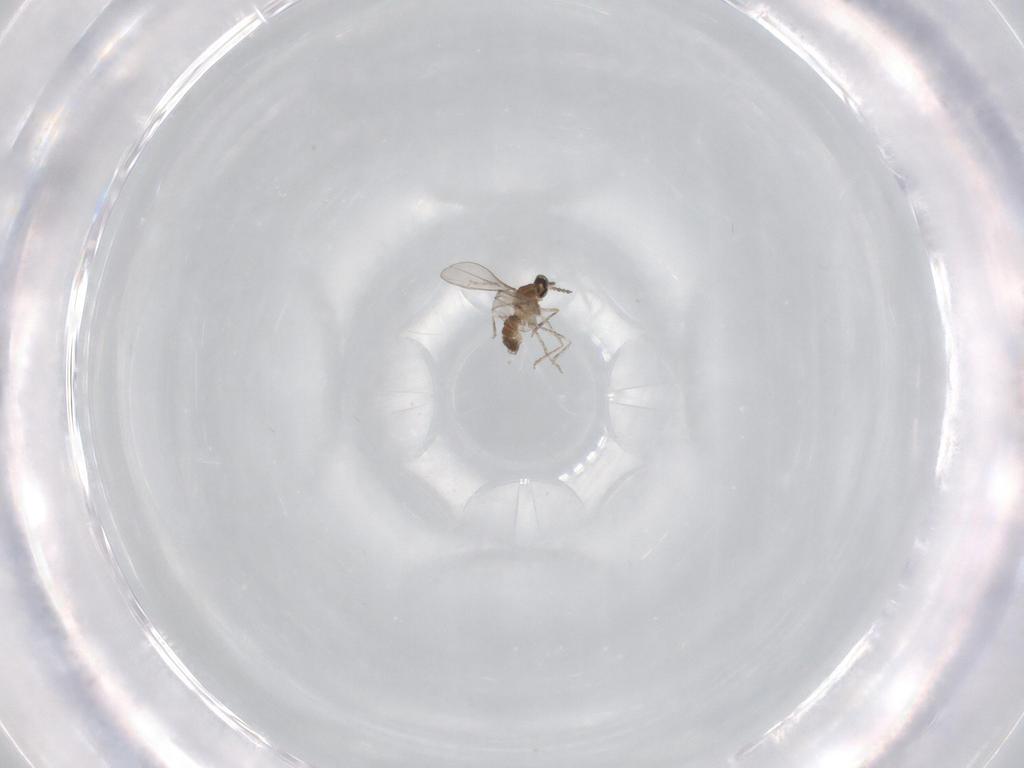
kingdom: Animalia
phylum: Arthropoda
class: Insecta
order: Diptera
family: Cecidomyiidae
